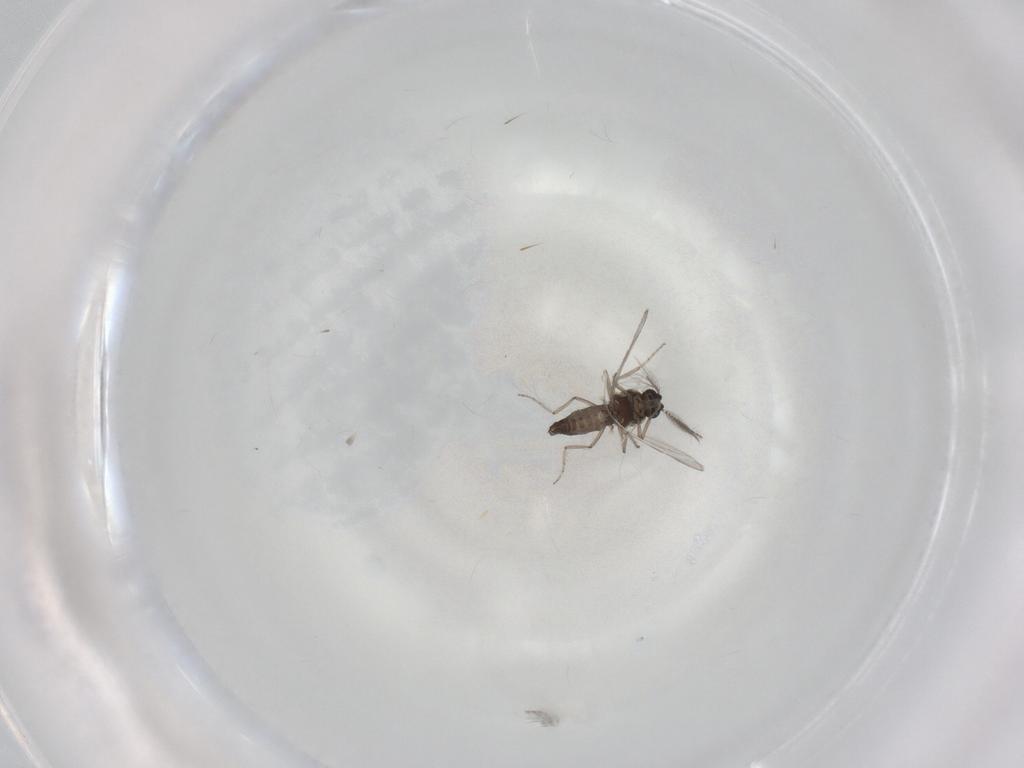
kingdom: Animalia
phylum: Arthropoda
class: Insecta
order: Diptera
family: Ceratopogonidae
